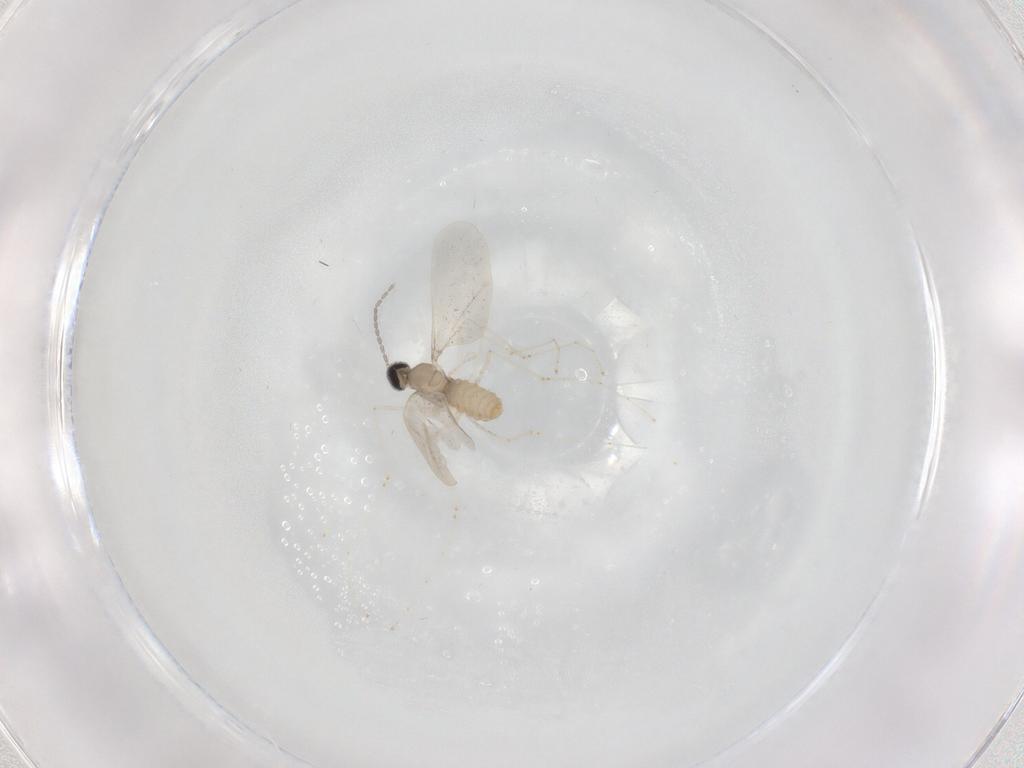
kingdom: Animalia
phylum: Arthropoda
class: Insecta
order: Diptera
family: Cecidomyiidae
